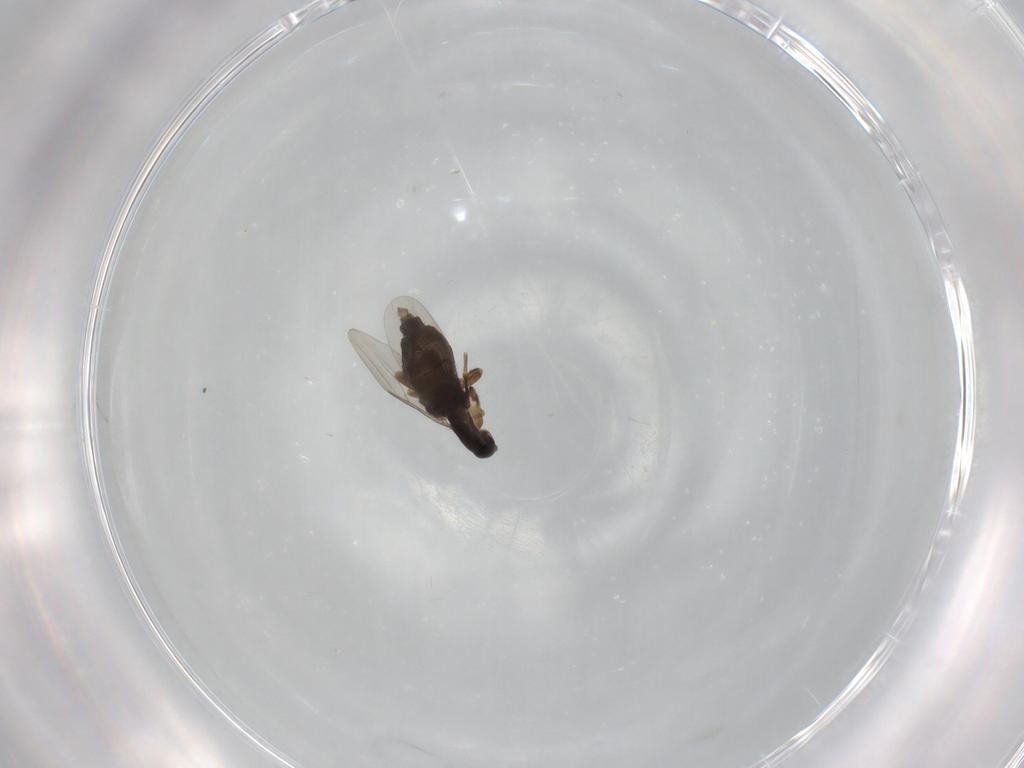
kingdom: Animalia
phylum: Arthropoda
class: Insecta
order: Diptera
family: Phoridae
